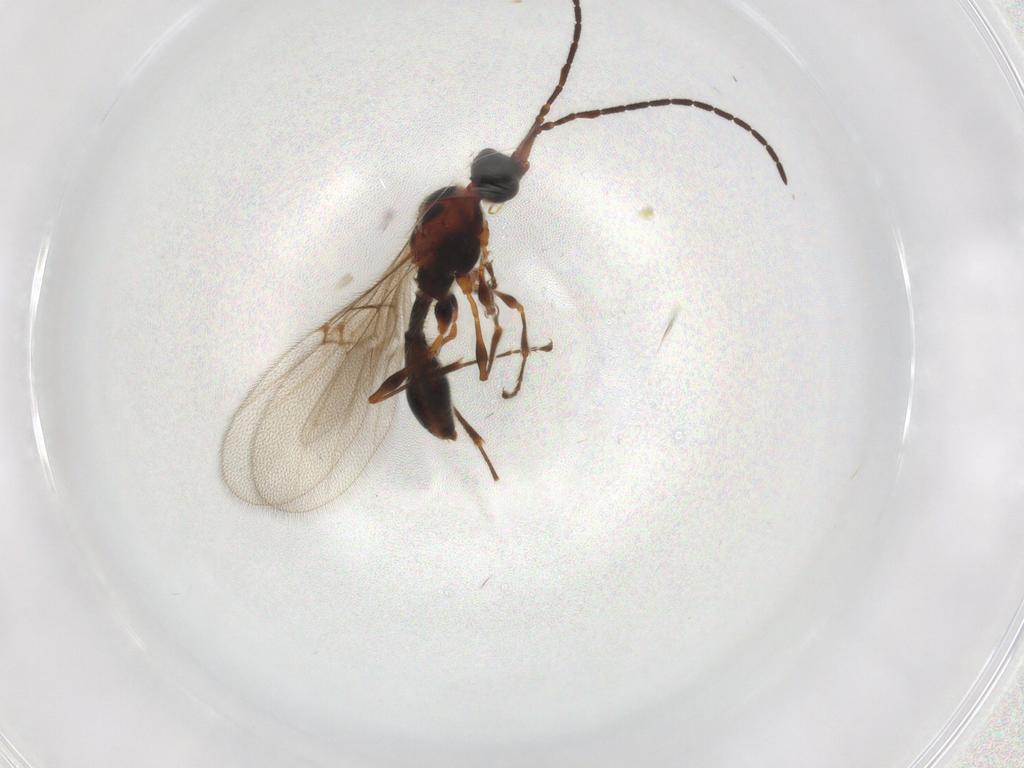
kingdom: Animalia
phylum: Arthropoda
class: Insecta
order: Hymenoptera
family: Diapriidae
